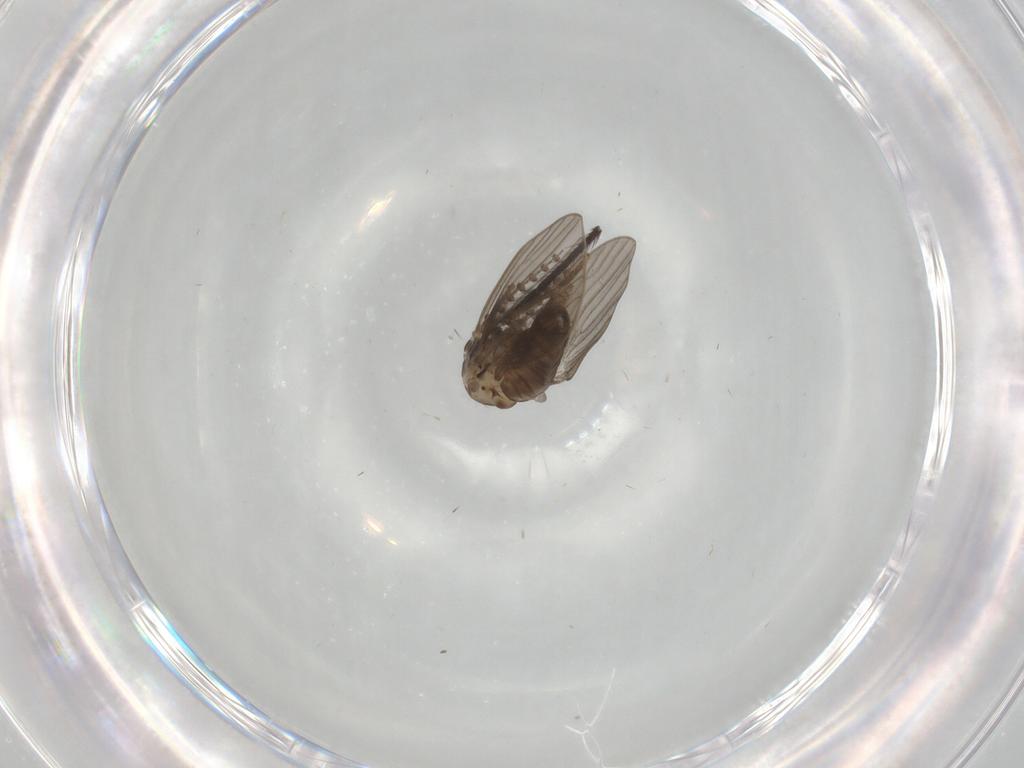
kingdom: Animalia
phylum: Arthropoda
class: Insecta
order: Diptera
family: Psychodidae
